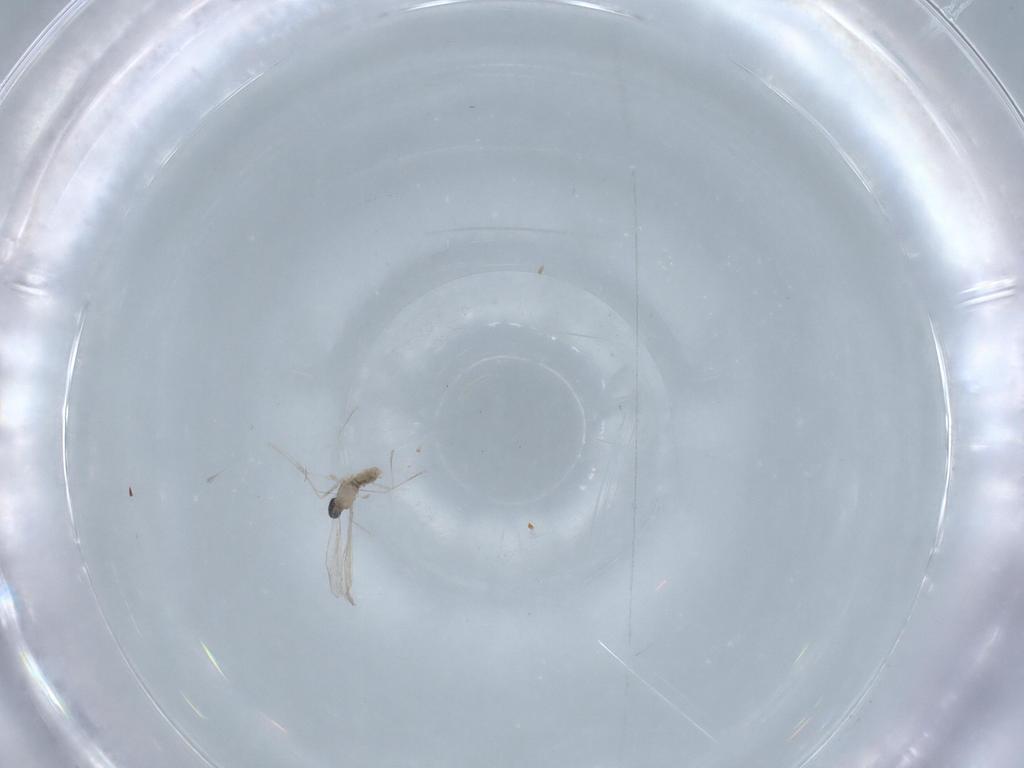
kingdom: Animalia
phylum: Arthropoda
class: Insecta
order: Diptera
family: Cecidomyiidae
